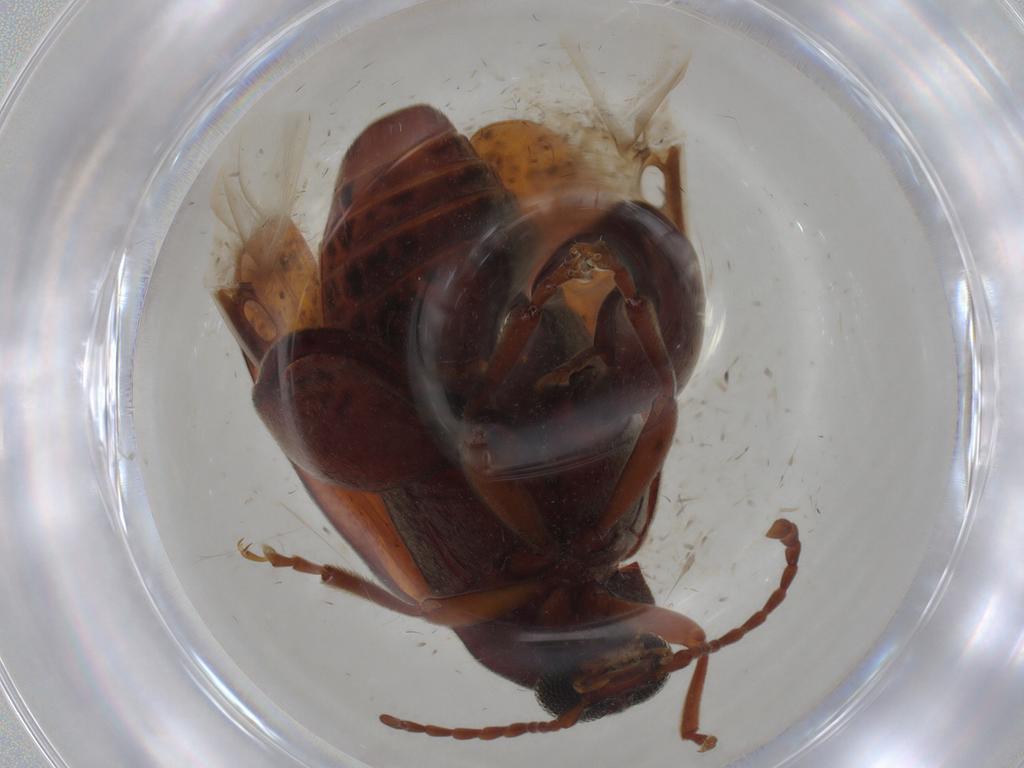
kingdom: Animalia
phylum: Arthropoda
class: Insecta
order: Coleoptera
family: Chrysomelidae
